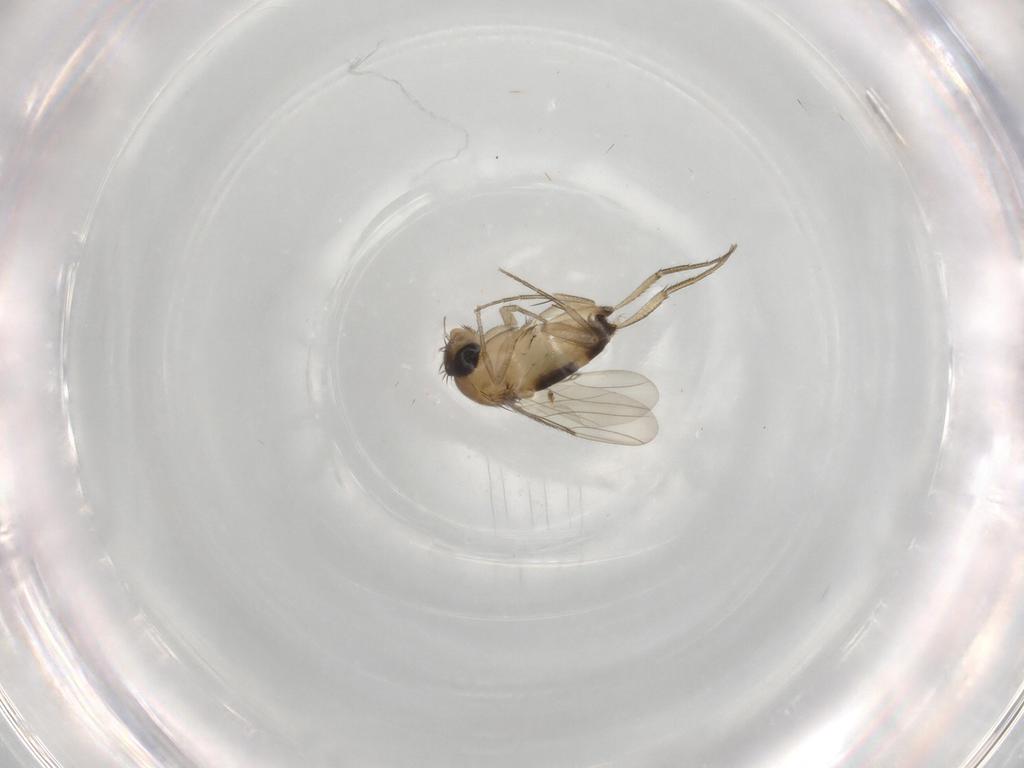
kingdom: Animalia
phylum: Arthropoda
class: Insecta
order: Diptera
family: Phoridae
